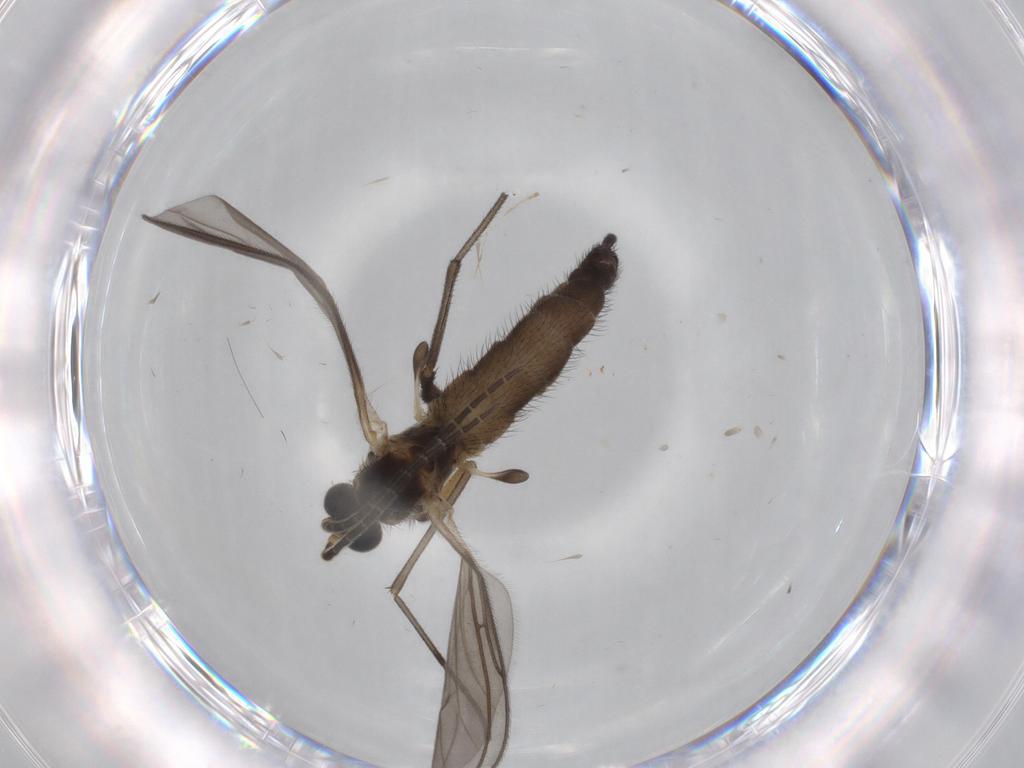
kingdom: Animalia
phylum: Arthropoda
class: Insecta
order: Diptera
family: Sciaridae
